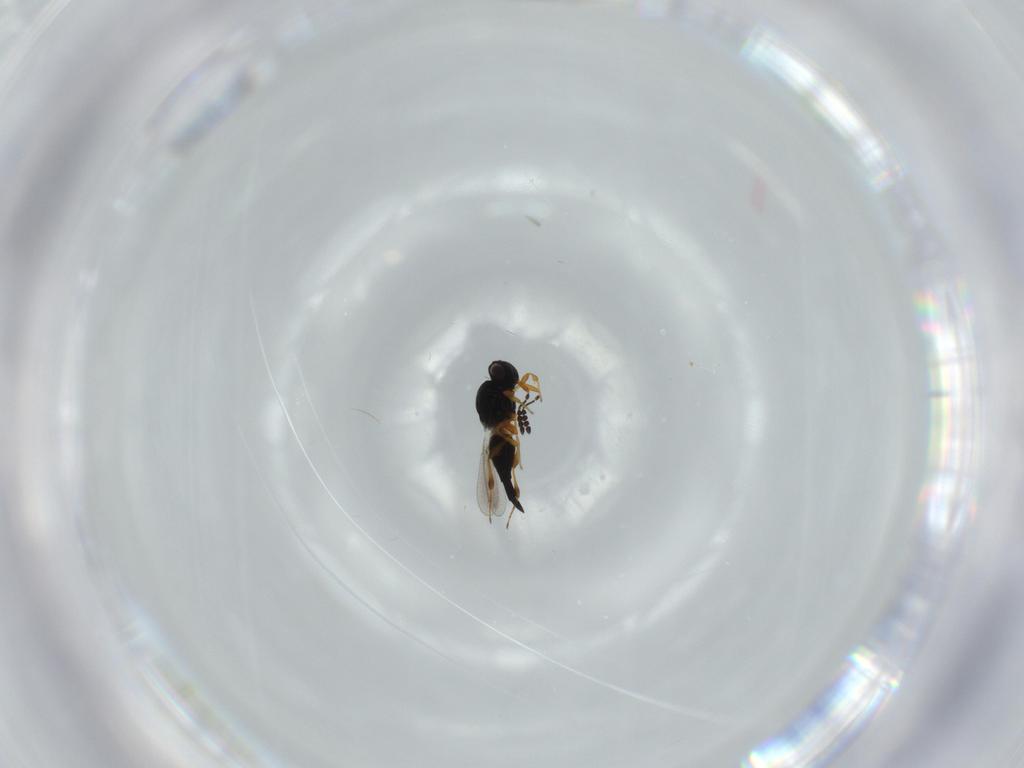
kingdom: Animalia
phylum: Arthropoda
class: Insecta
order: Hymenoptera
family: Platygastridae
